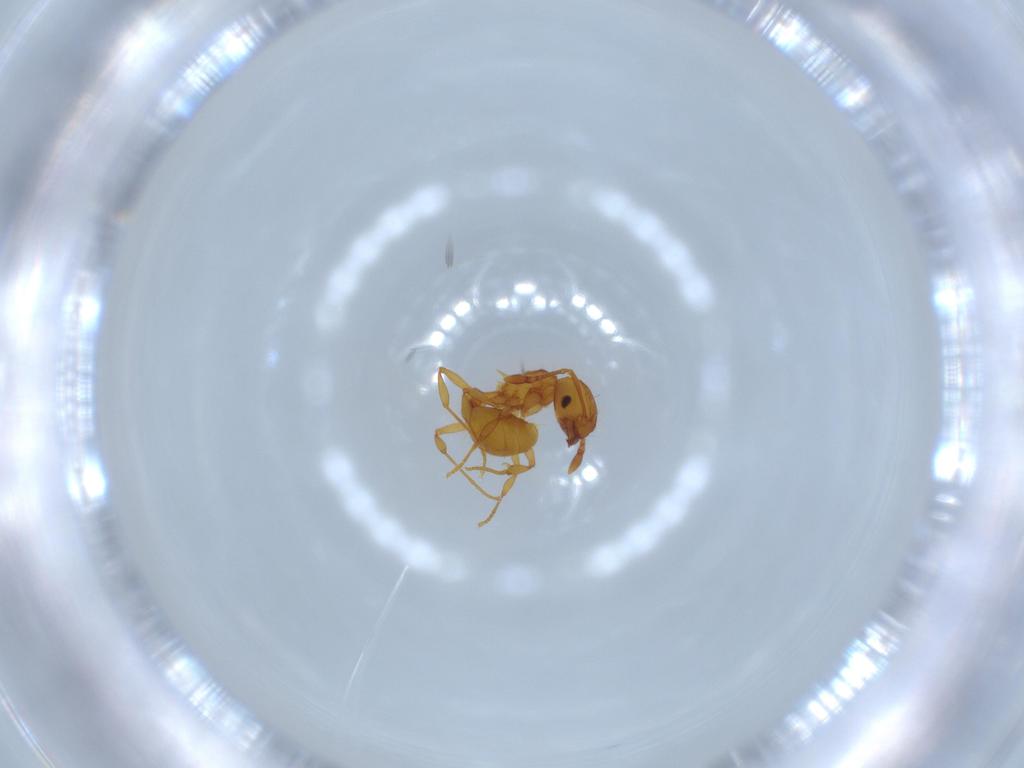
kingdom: Animalia
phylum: Arthropoda
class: Insecta
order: Hymenoptera
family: Formicidae
